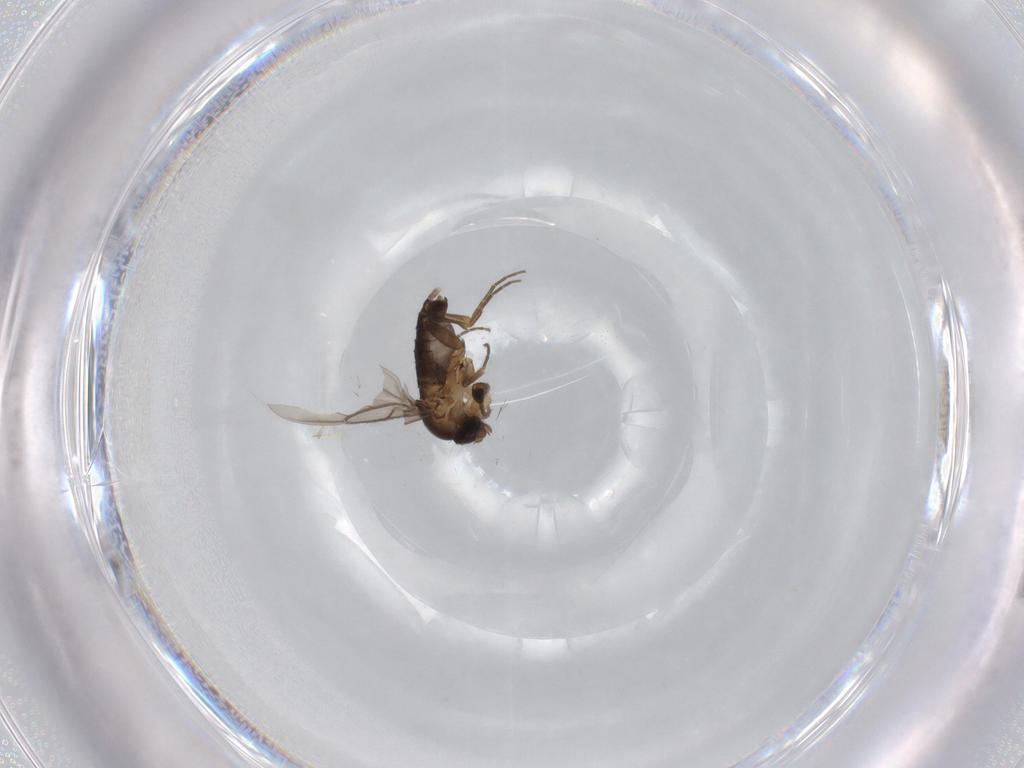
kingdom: Animalia
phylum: Arthropoda
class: Insecta
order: Diptera
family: Phoridae
